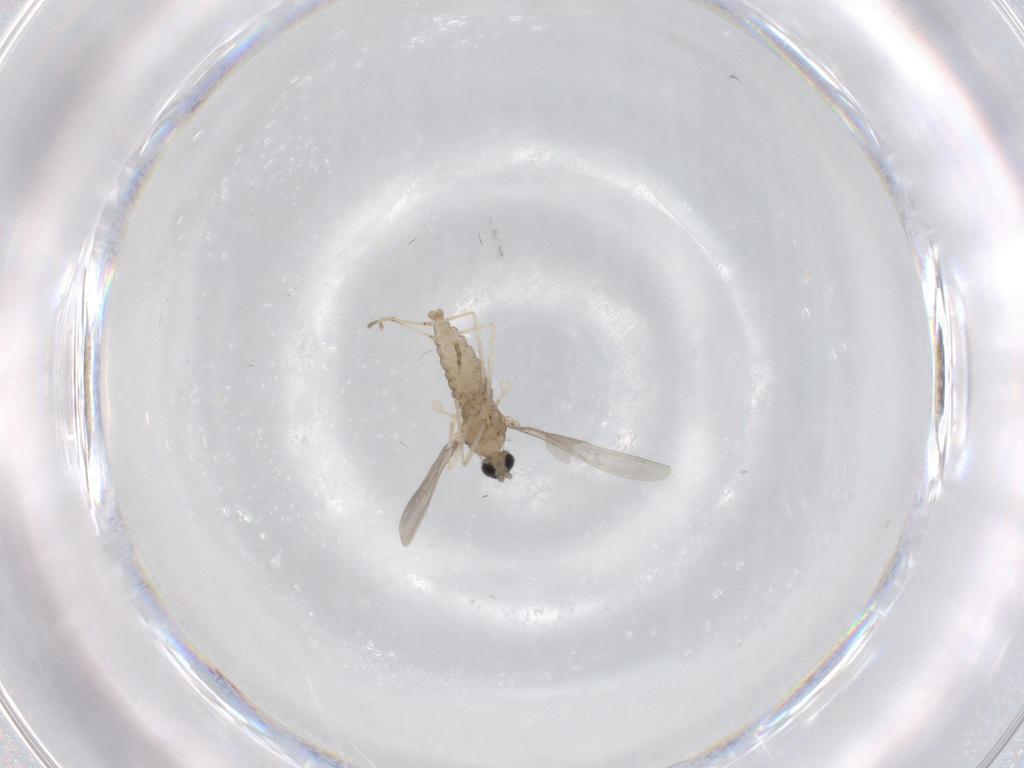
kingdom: Animalia
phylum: Arthropoda
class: Insecta
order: Diptera
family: Cecidomyiidae
